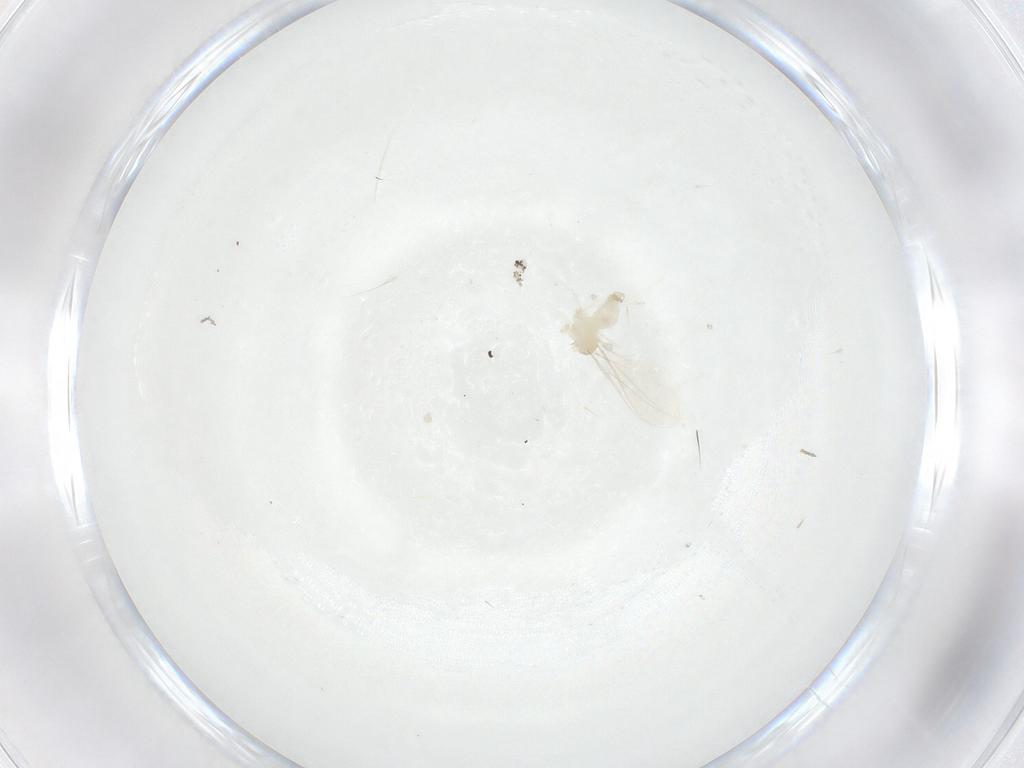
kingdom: Animalia
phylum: Arthropoda
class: Insecta
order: Diptera
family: Cecidomyiidae
